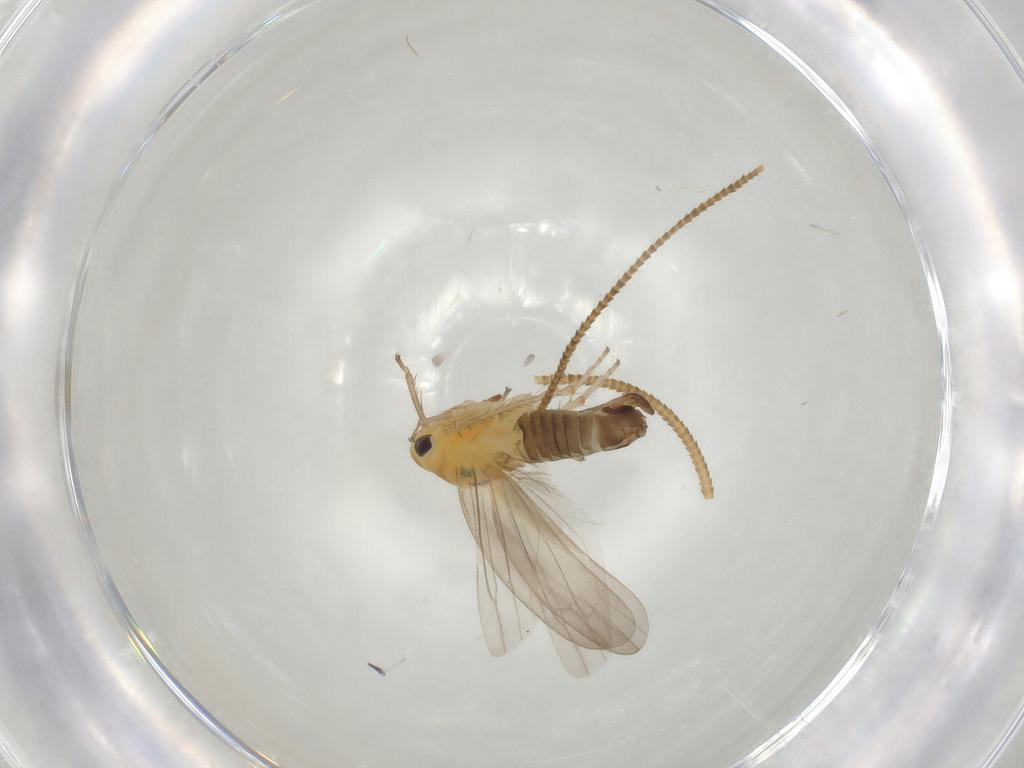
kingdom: Animalia
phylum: Arthropoda
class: Insecta
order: Hemiptera
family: Cicadellidae
